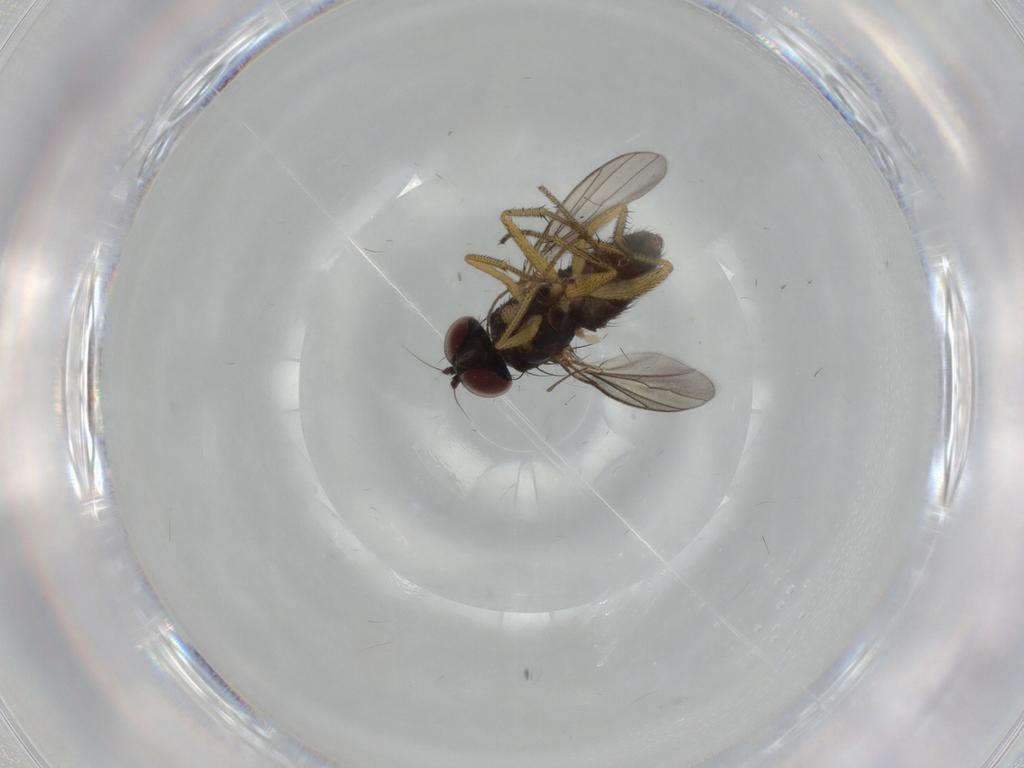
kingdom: Animalia
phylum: Arthropoda
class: Insecta
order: Diptera
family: Dolichopodidae
